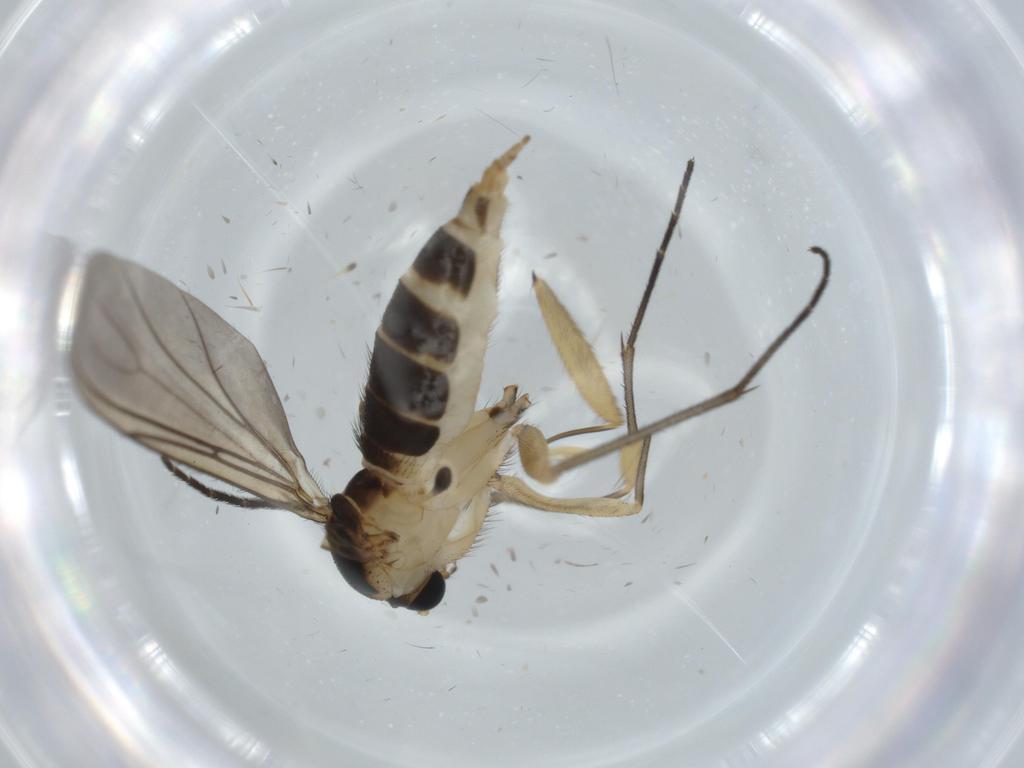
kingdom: Animalia
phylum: Arthropoda
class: Insecta
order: Diptera
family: Sciaridae
